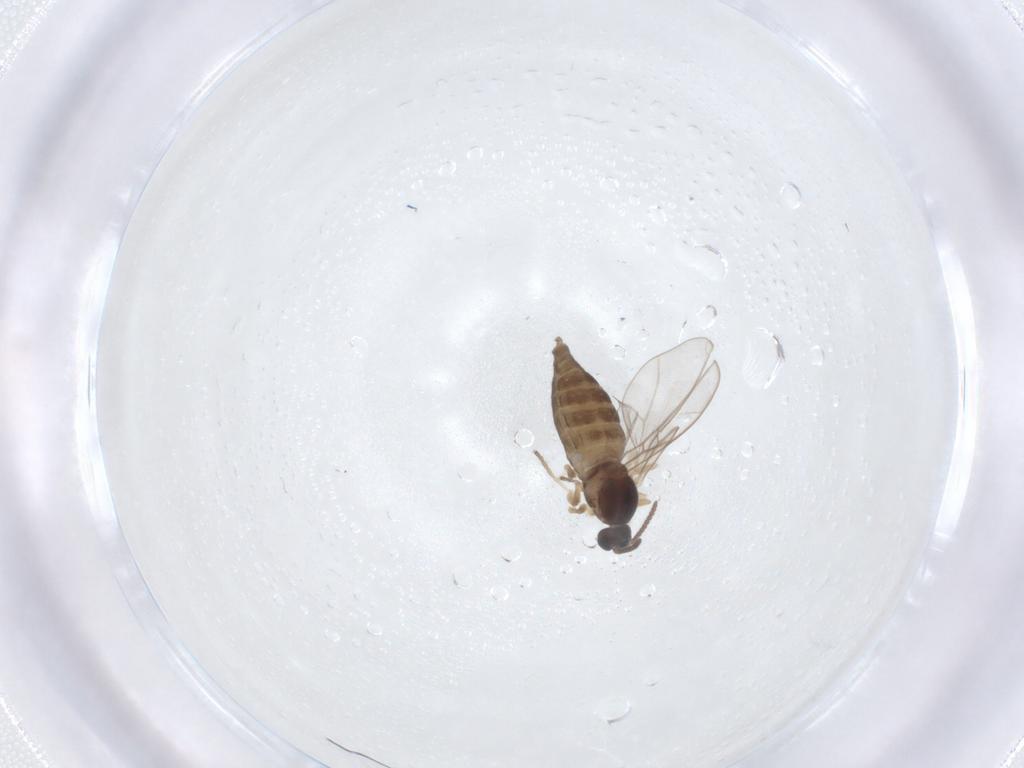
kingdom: Animalia
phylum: Arthropoda
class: Insecta
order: Diptera
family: Cecidomyiidae
